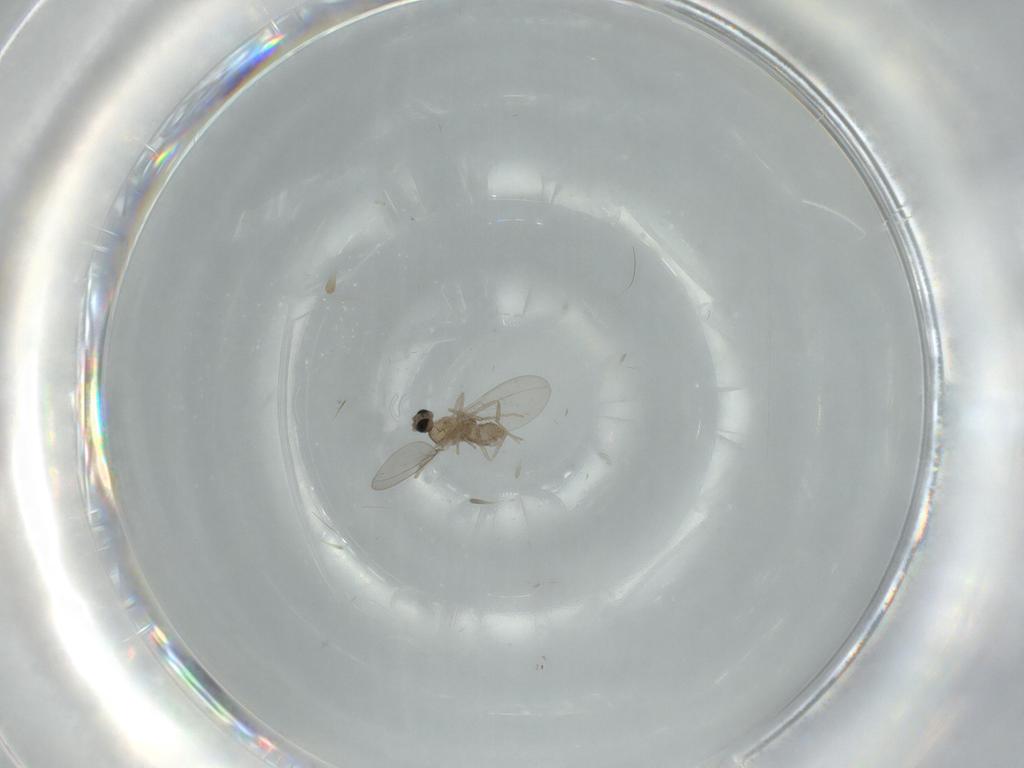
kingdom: Animalia
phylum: Arthropoda
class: Insecta
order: Diptera
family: Cecidomyiidae
